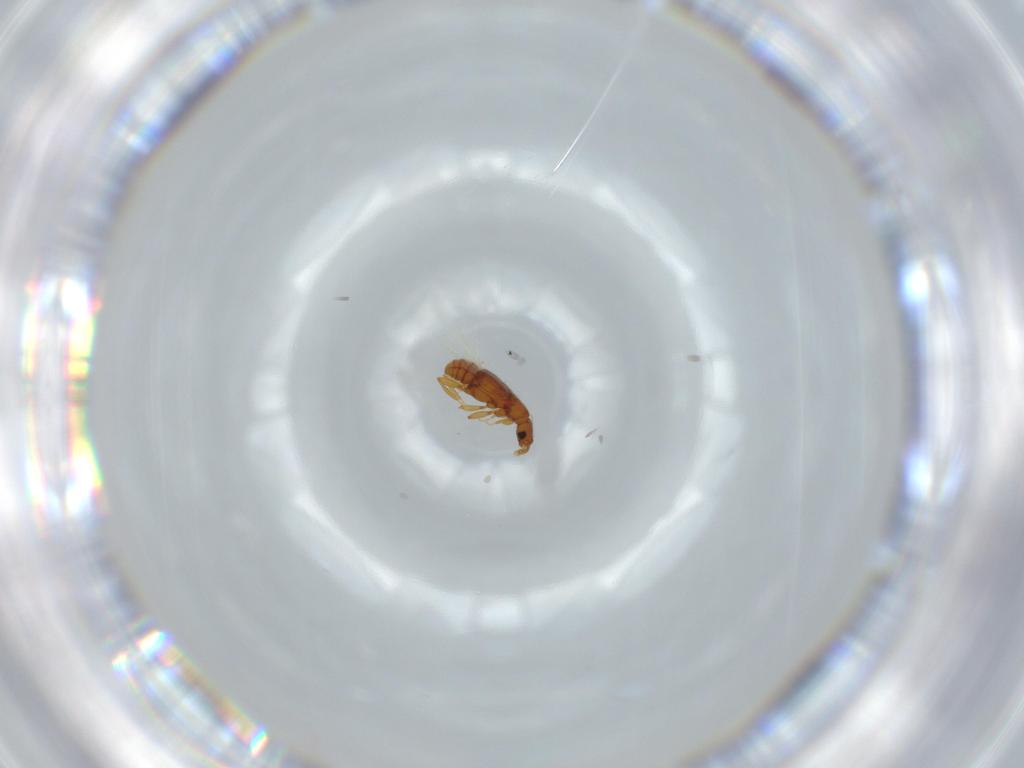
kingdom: Animalia
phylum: Arthropoda
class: Insecta
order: Coleoptera
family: Staphylinidae
